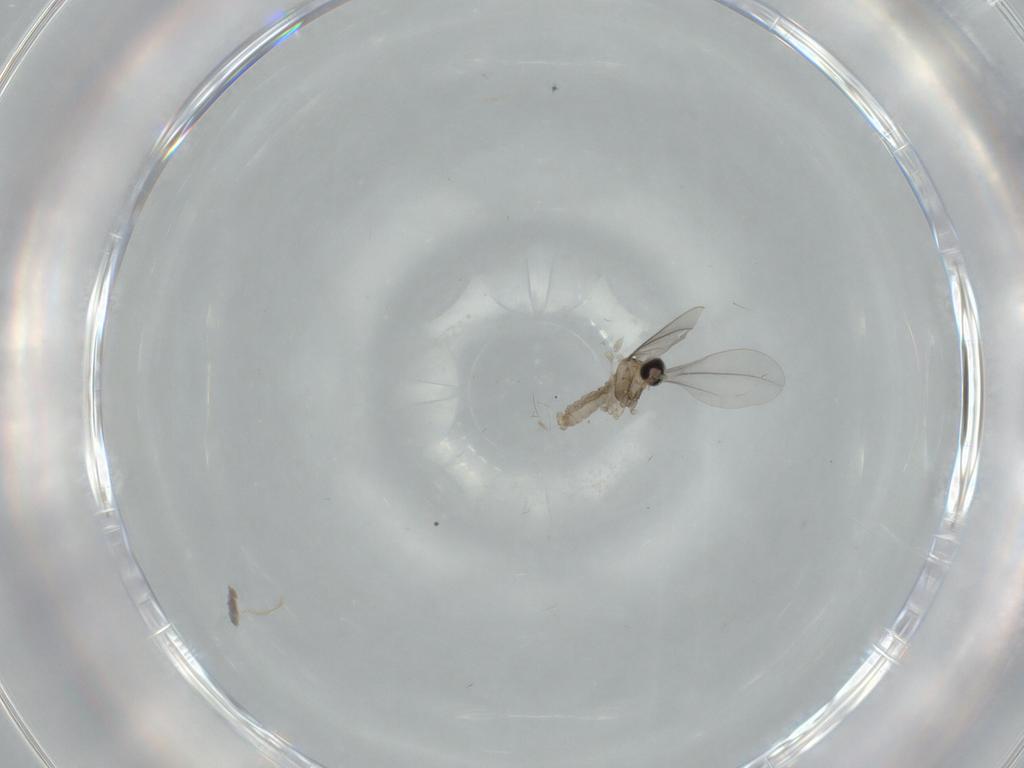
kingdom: Animalia
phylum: Arthropoda
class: Insecta
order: Diptera
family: Cecidomyiidae
